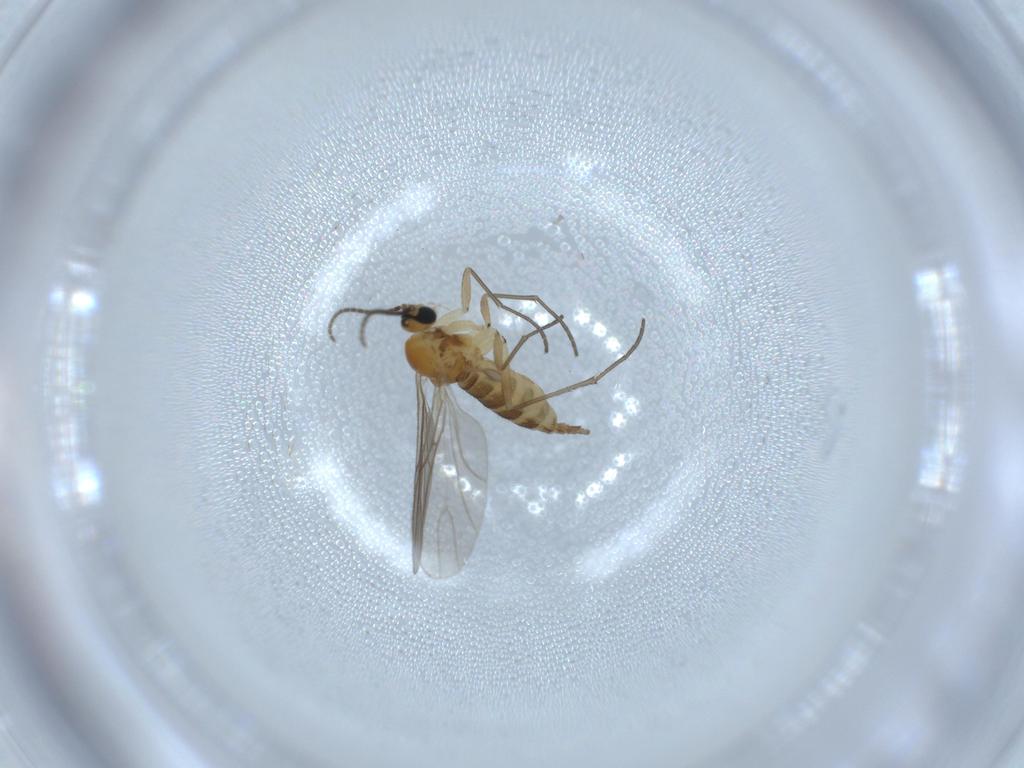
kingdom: Animalia
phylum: Arthropoda
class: Insecta
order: Diptera
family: Sciaridae
